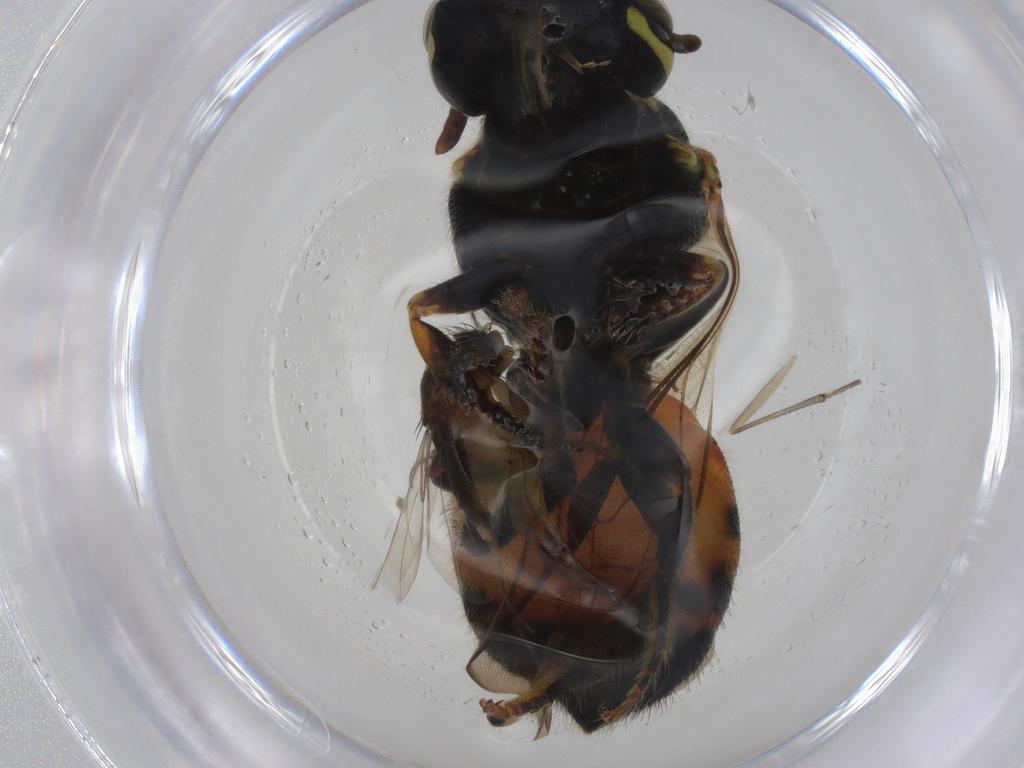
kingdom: Animalia
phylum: Arthropoda
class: Insecta
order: Hymenoptera
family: Apidae
